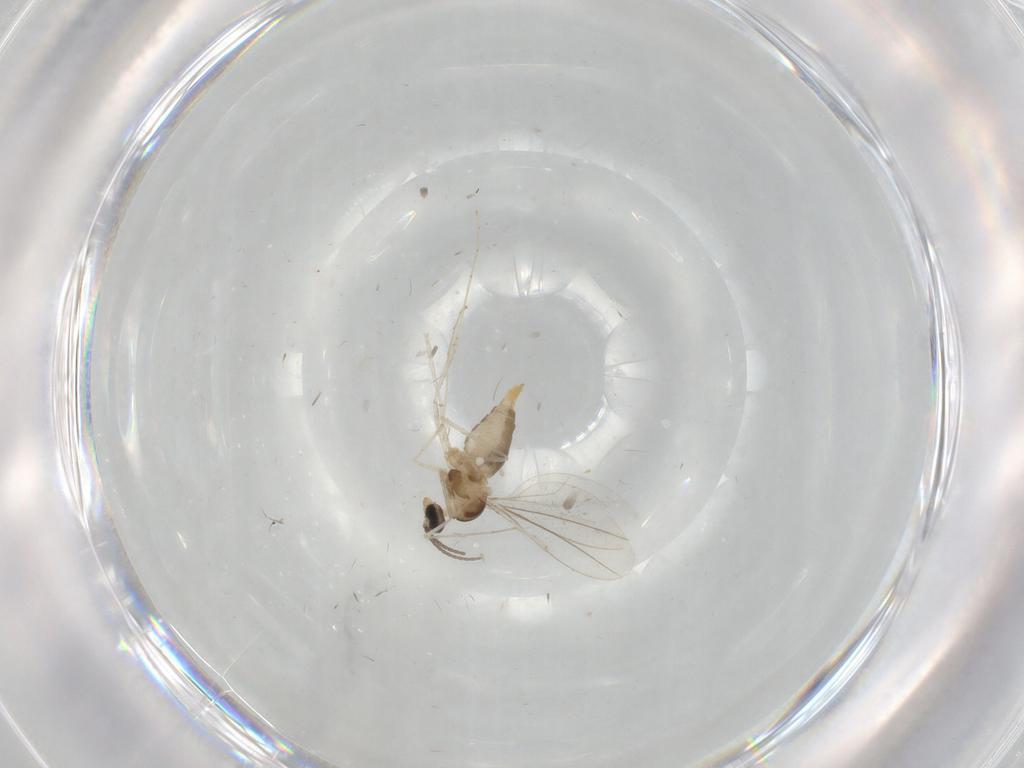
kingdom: Animalia
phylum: Arthropoda
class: Insecta
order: Diptera
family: Cecidomyiidae
